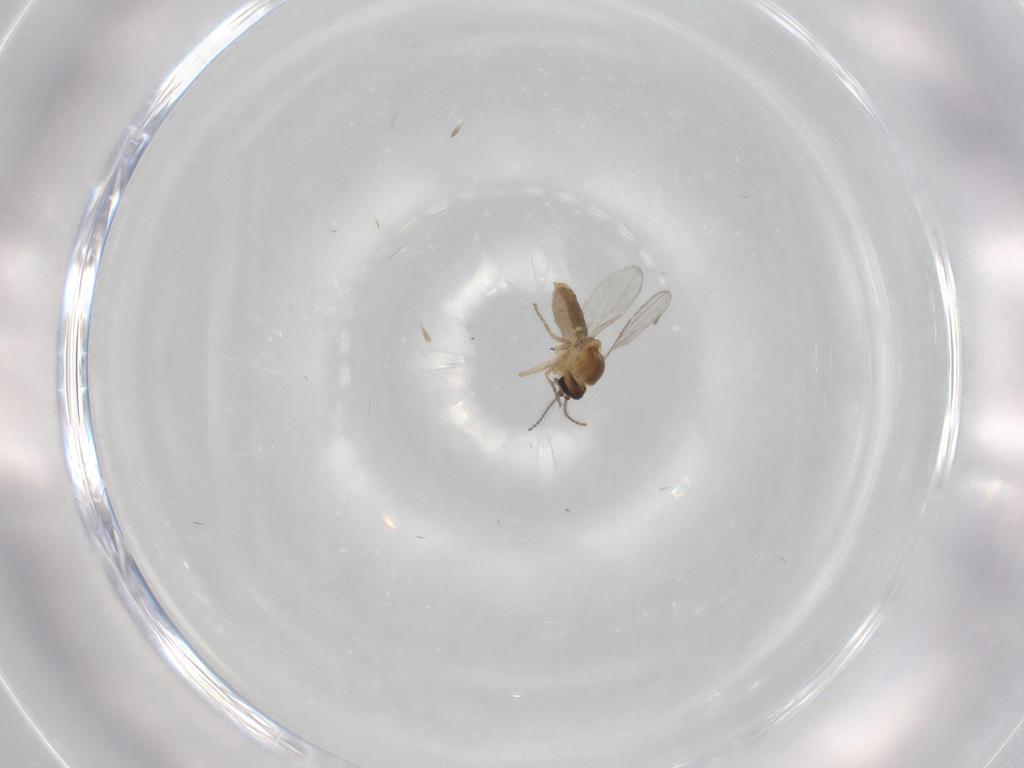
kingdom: Animalia
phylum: Arthropoda
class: Insecta
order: Diptera
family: Ceratopogonidae
